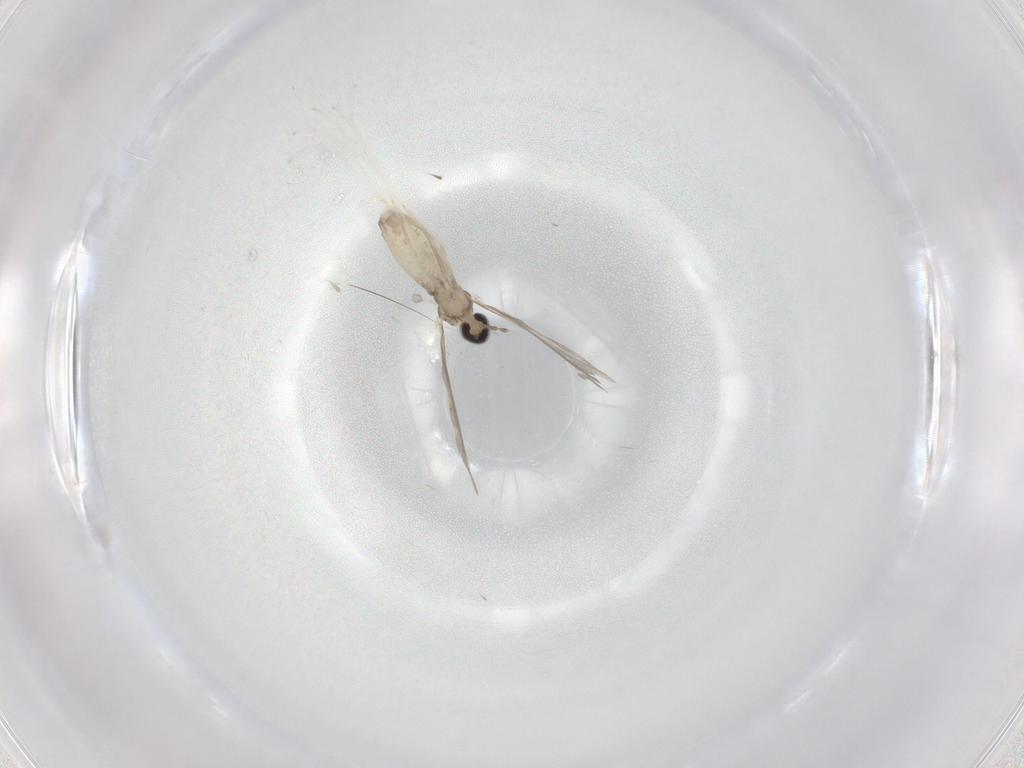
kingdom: Animalia
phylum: Arthropoda
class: Insecta
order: Diptera
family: Cecidomyiidae
